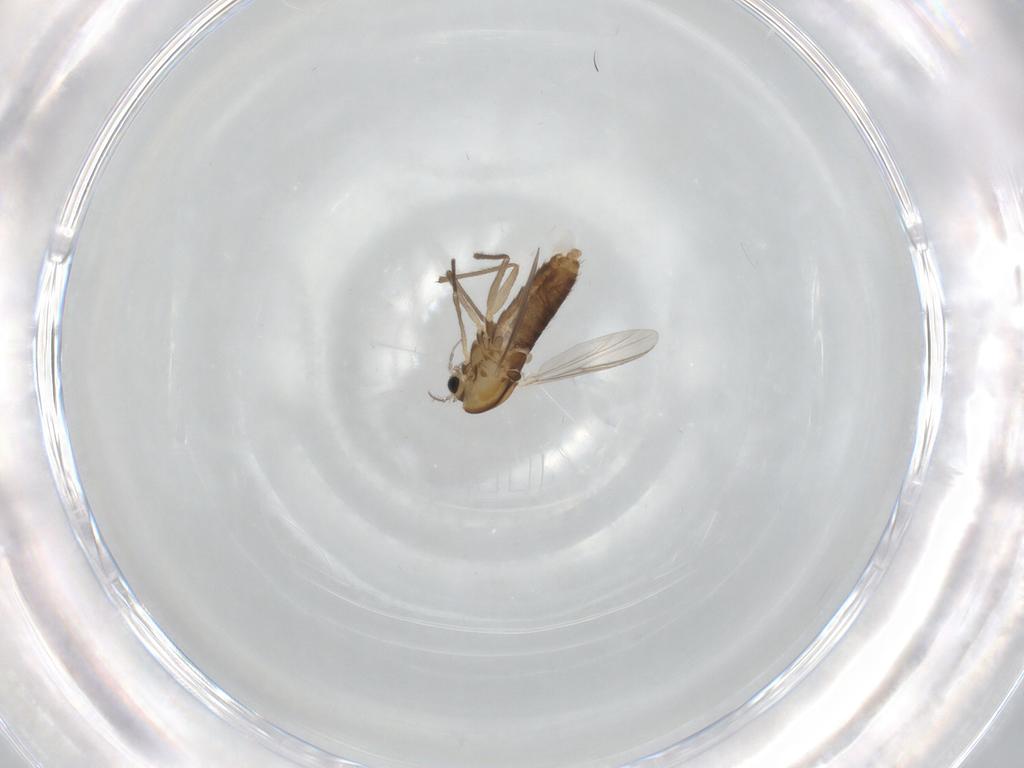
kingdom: Animalia
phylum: Arthropoda
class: Insecta
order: Diptera
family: Chironomidae
